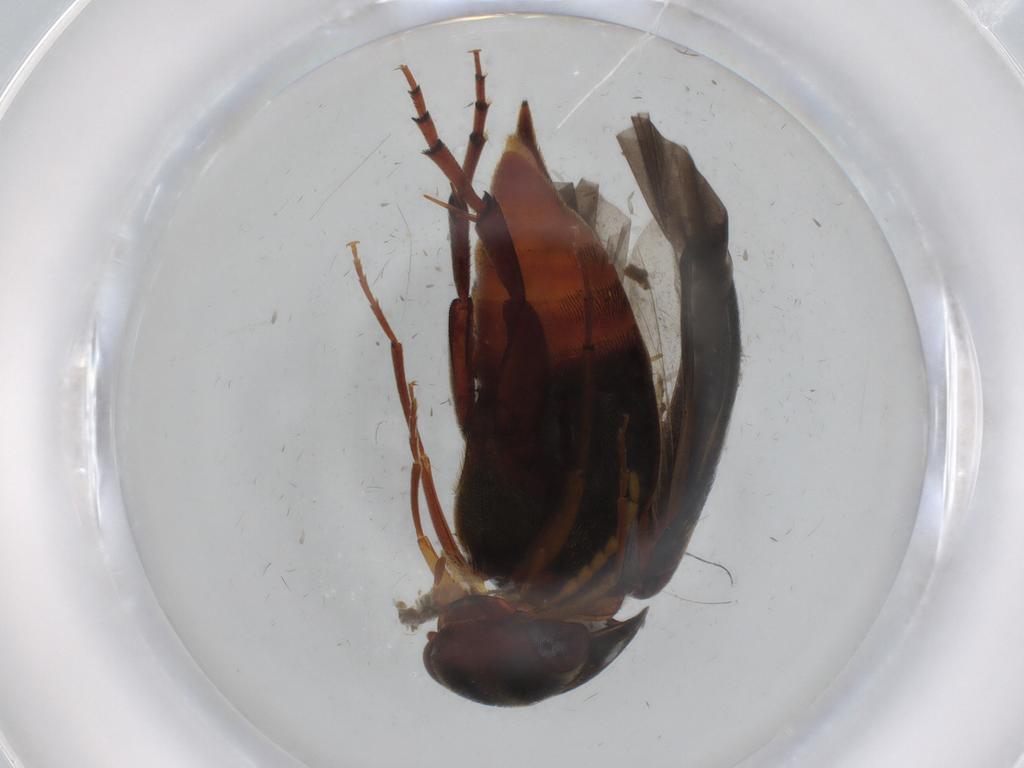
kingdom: Animalia
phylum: Arthropoda
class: Insecta
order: Coleoptera
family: Mordellidae
